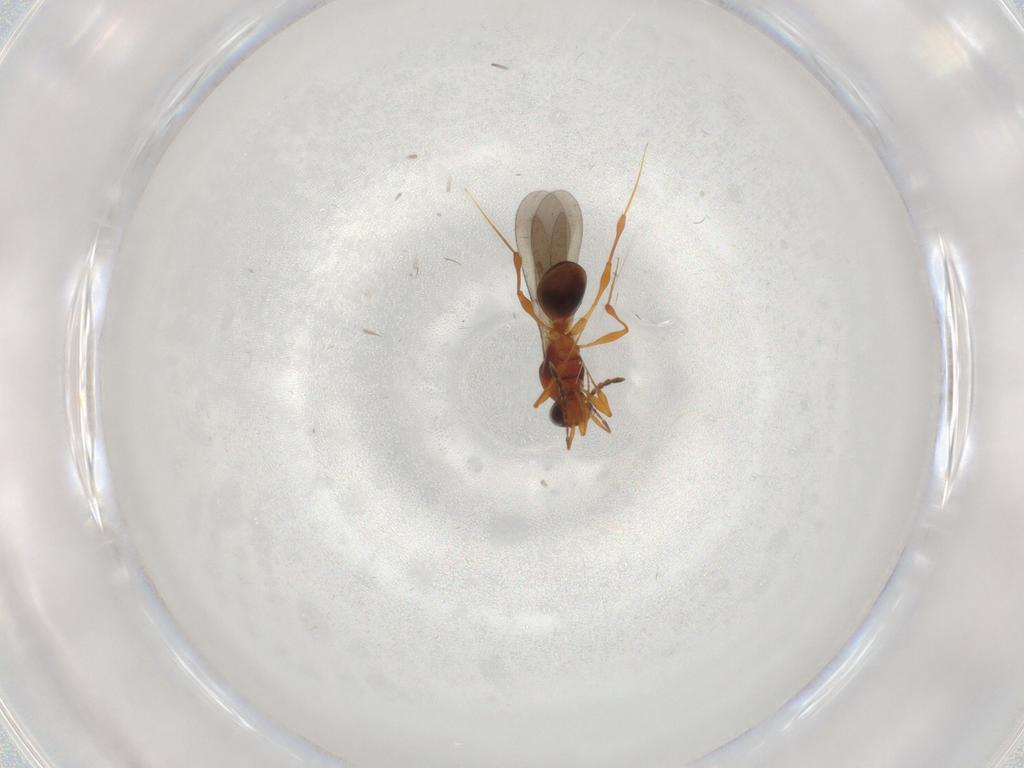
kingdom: Animalia
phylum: Arthropoda
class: Insecta
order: Hymenoptera
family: Platygastridae
